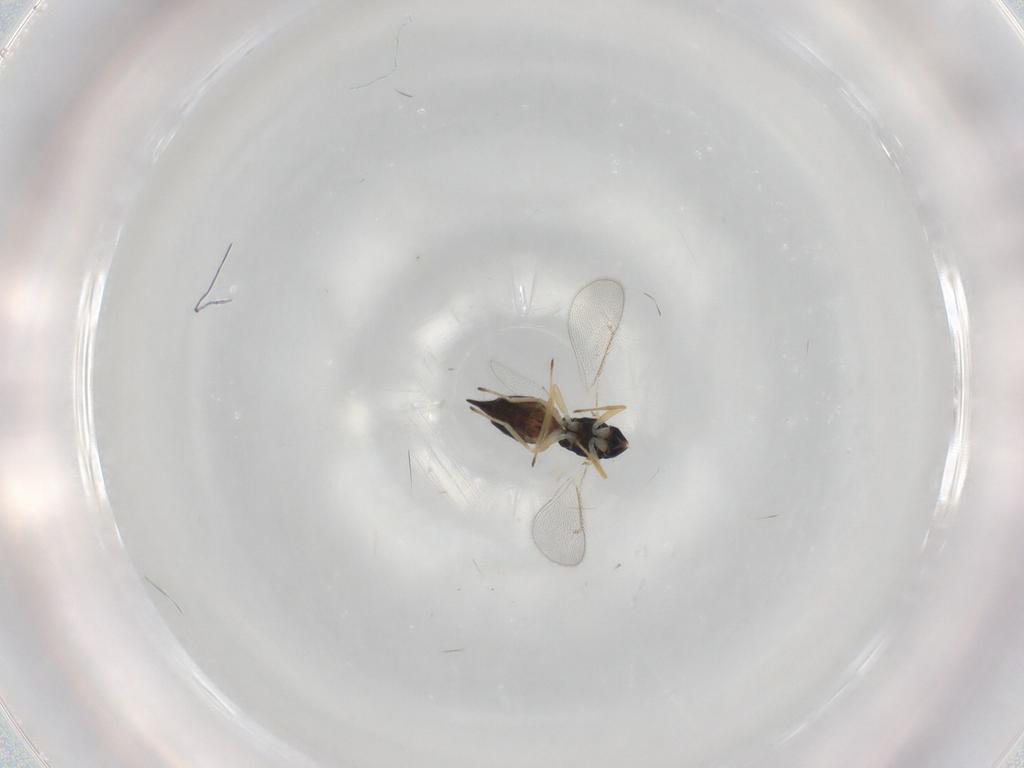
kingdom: Animalia
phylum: Arthropoda
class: Insecta
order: Hymenoptera
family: Eulophidae
